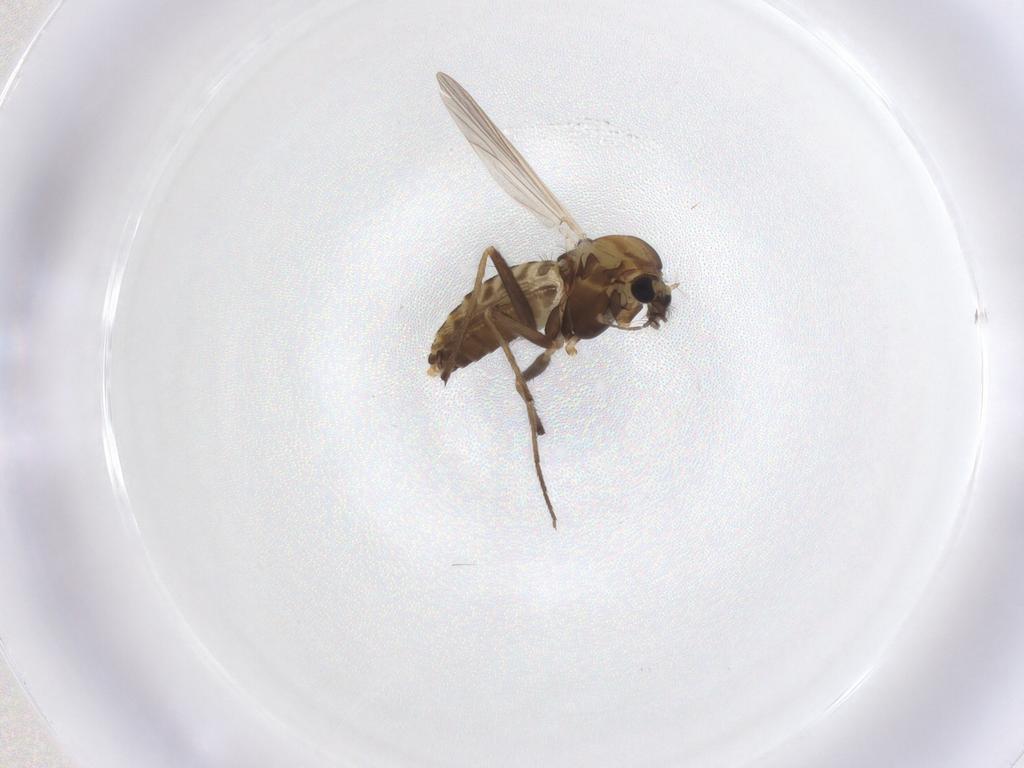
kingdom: Animalia
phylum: Arthropoda
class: Insecta
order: Diptera
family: Chironomidae
